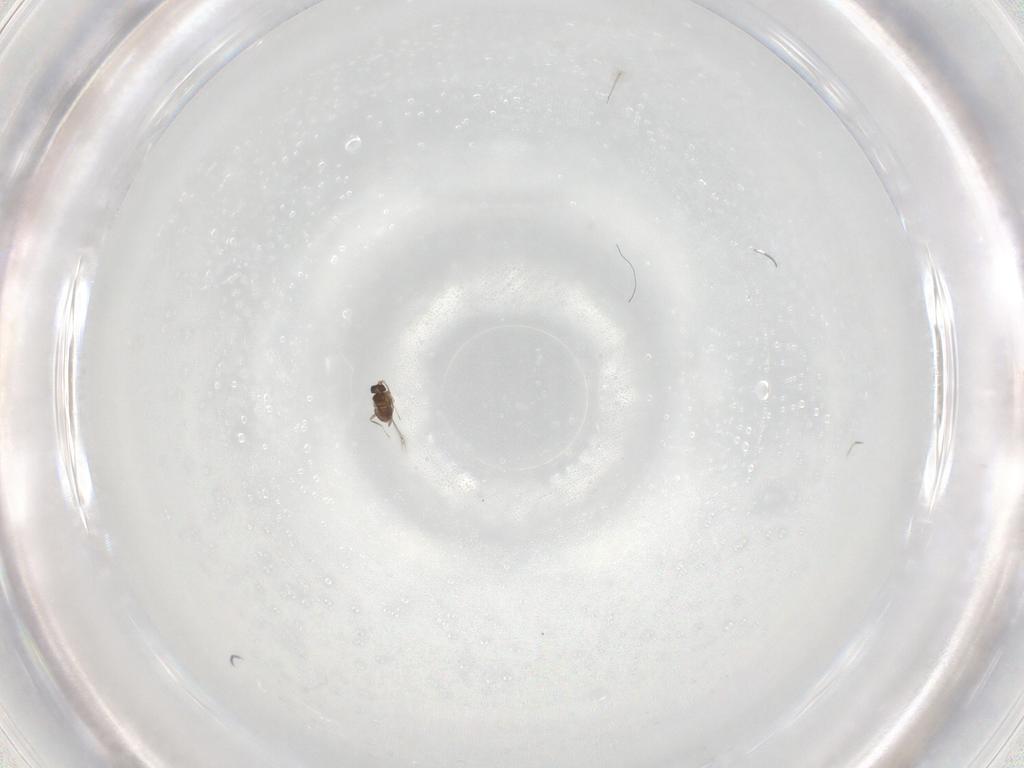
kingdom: Animalia
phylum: Arthropoda
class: Insecta
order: Hymenoptera
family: Mymaridae
